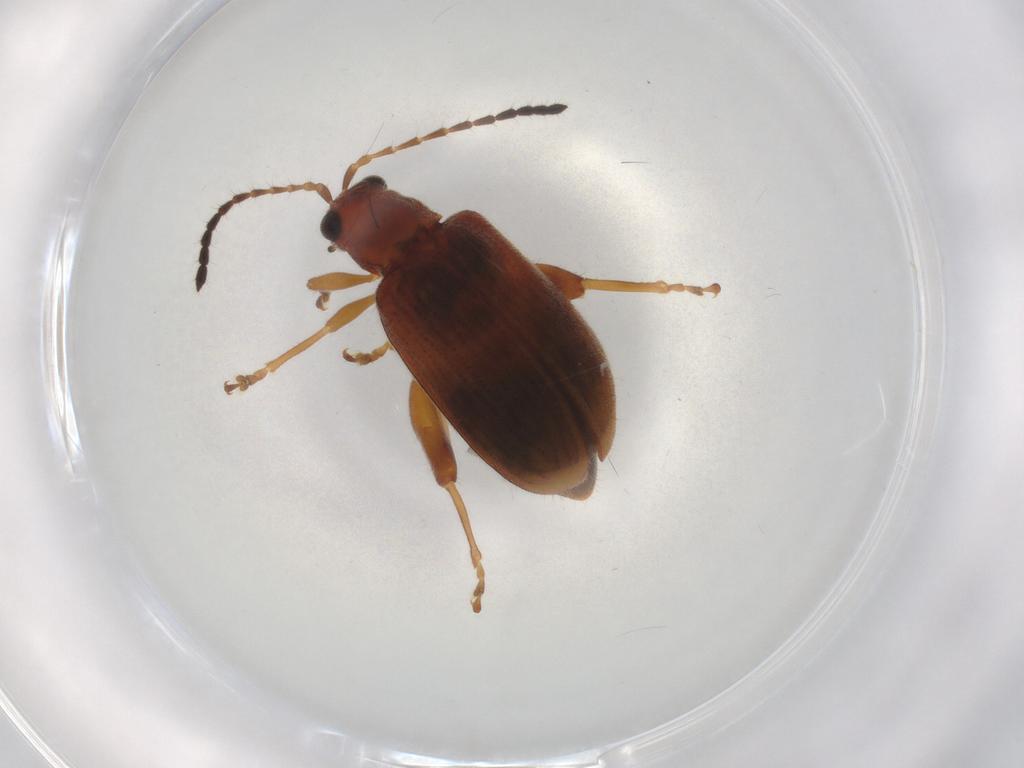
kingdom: Animalia
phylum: Arthropoda
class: Insecta
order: Coleoptera
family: Chrysomelidae
